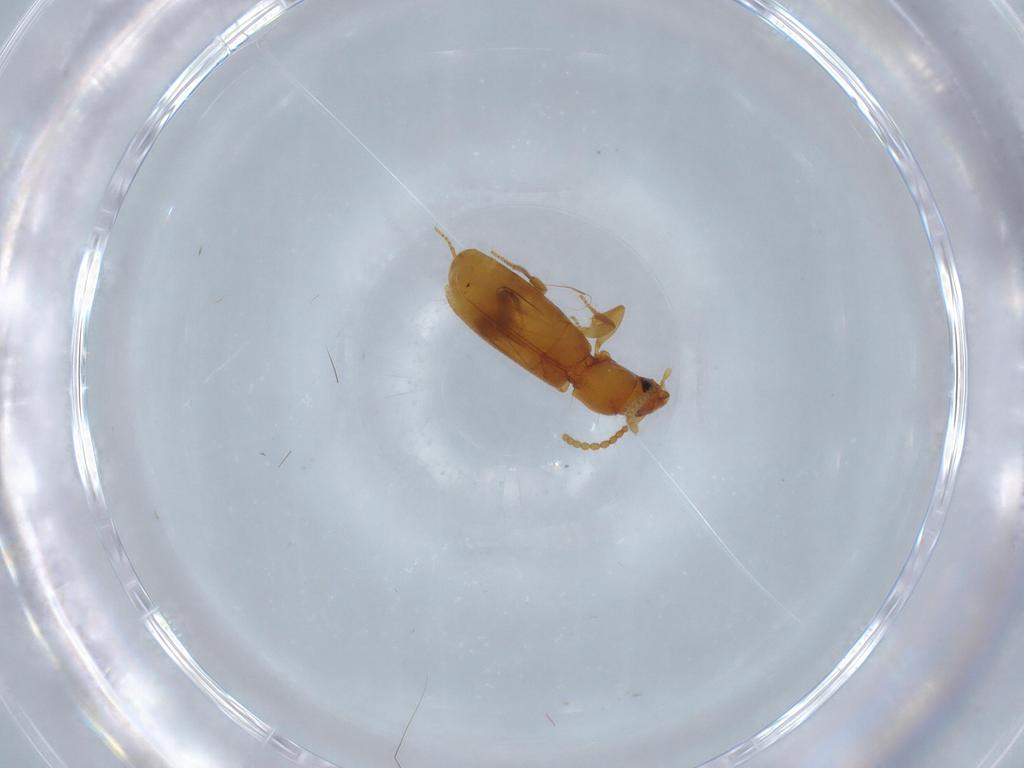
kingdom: Animalia
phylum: Arthropoda
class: Insecta
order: Coleoptera
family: Carabidae
